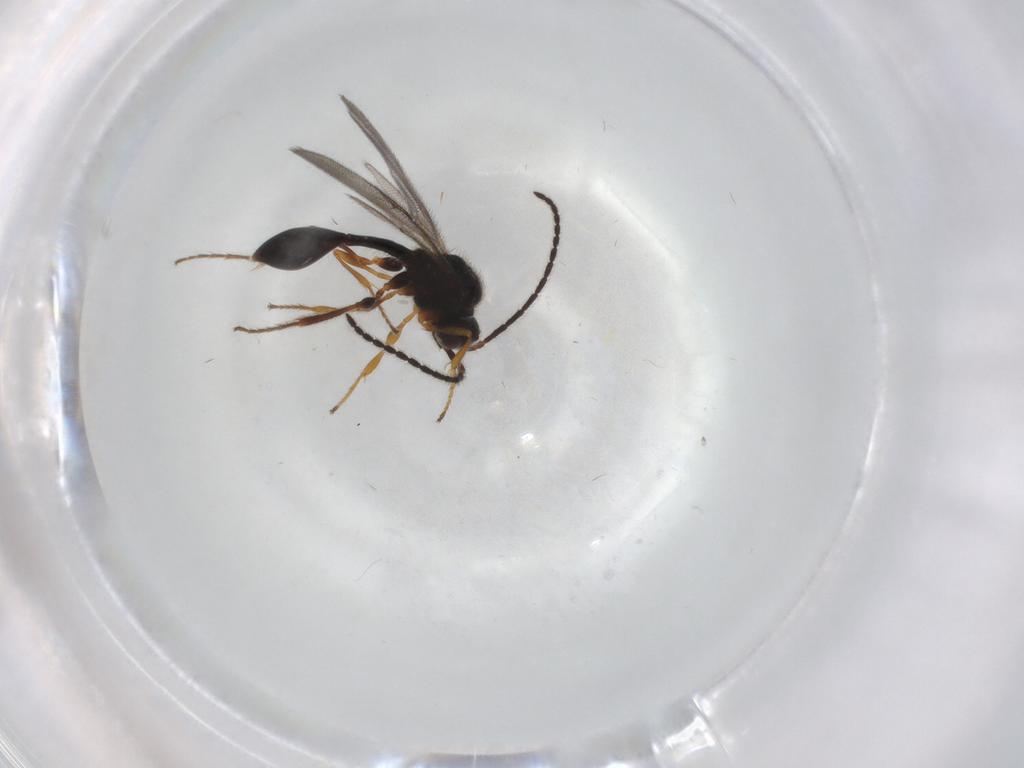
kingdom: Animalia
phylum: Arthropoda
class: Insecta
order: Hymenoptera
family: Diapriidae
